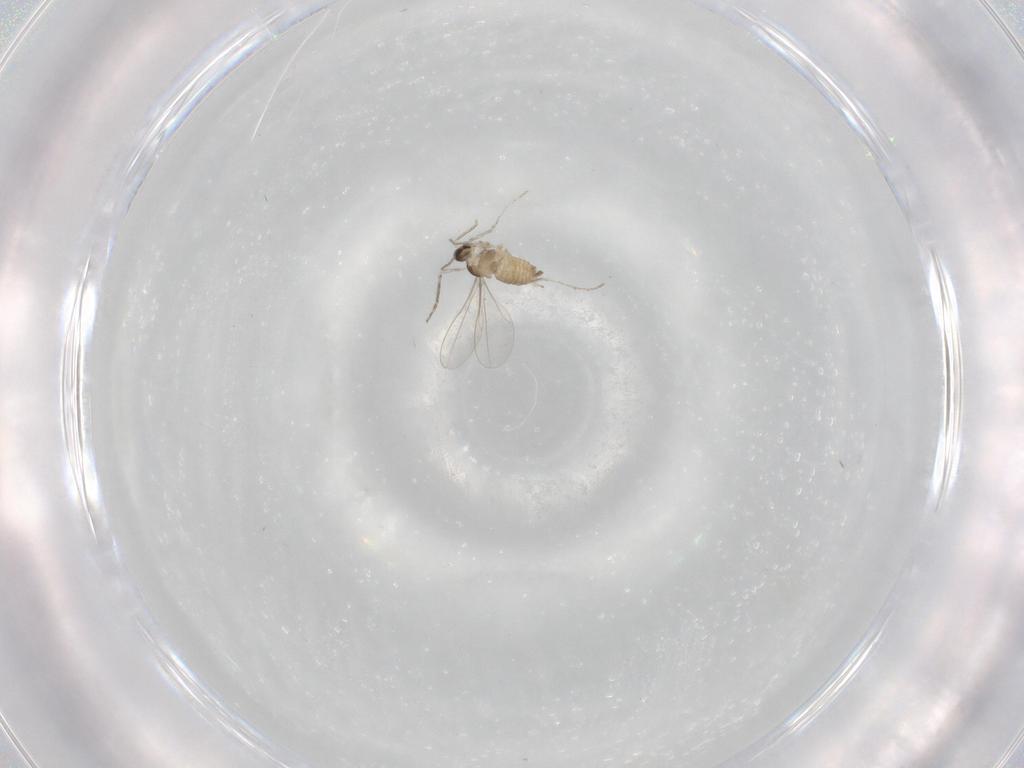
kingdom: Animalia
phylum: Arthropoda
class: Insecta
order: Diptera
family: Cecidomyiidae
